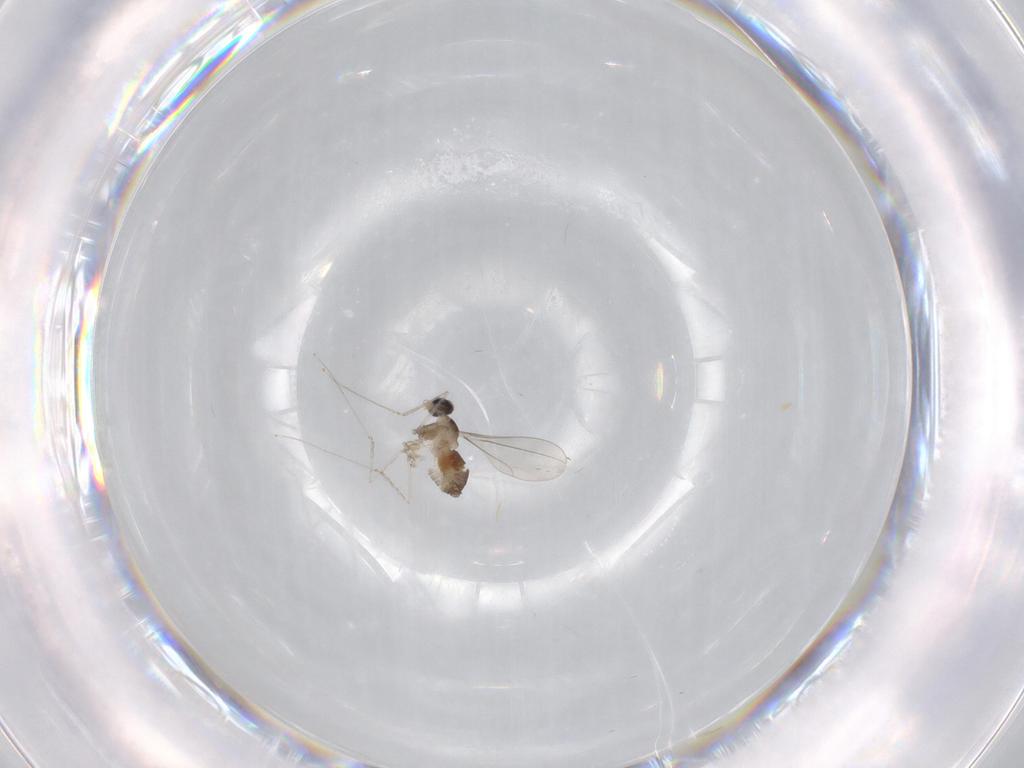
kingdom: Animalia
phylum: Arthropoda
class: Insecta
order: Diptera
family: Cecidomyiidae
